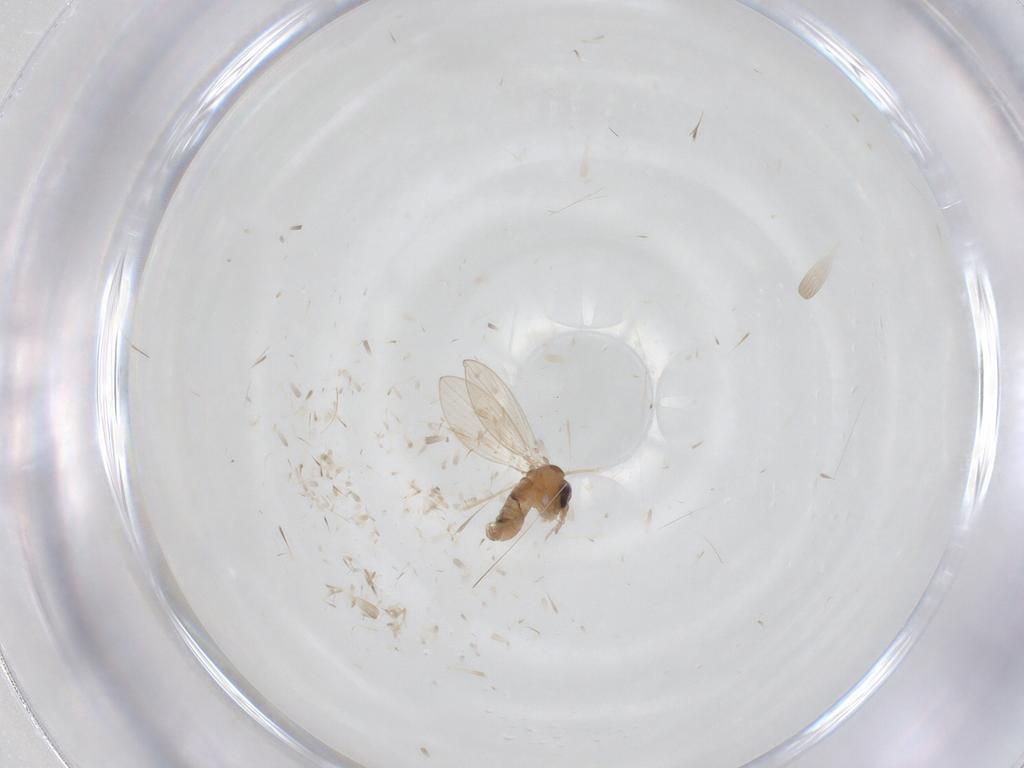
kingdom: Animalia
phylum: Arthropoda
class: Insecta
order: Diptera
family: Psychodidae
